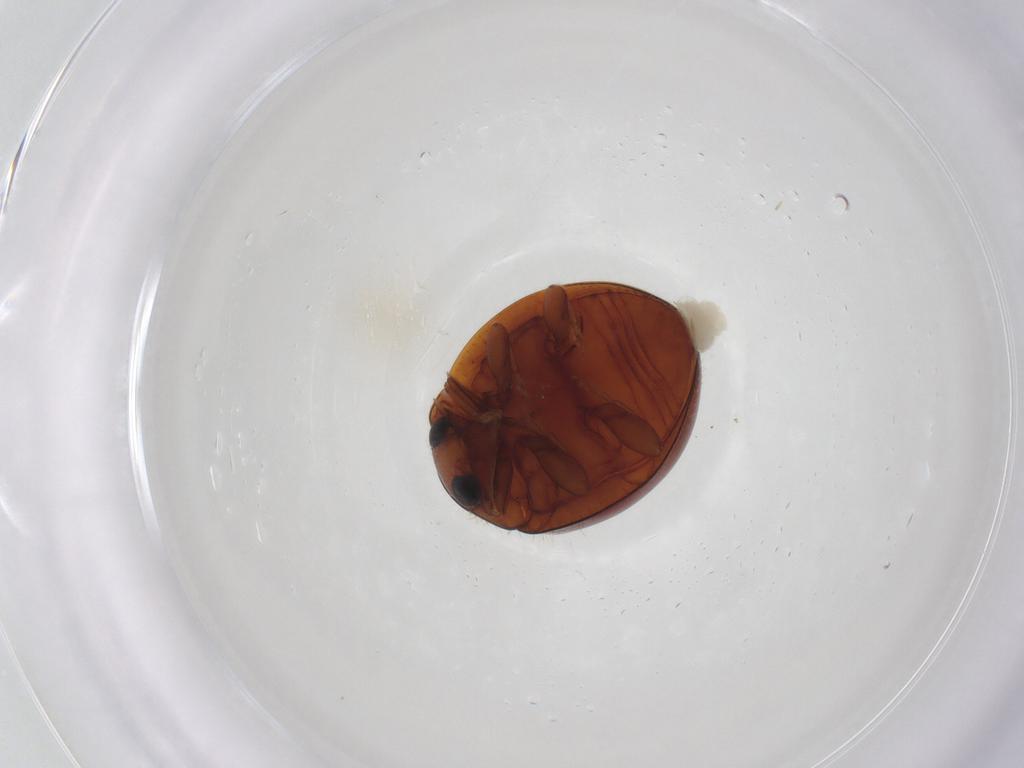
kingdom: Animalia
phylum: Arthropoda
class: Insecta
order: Coleoptera
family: Coccinellidae
